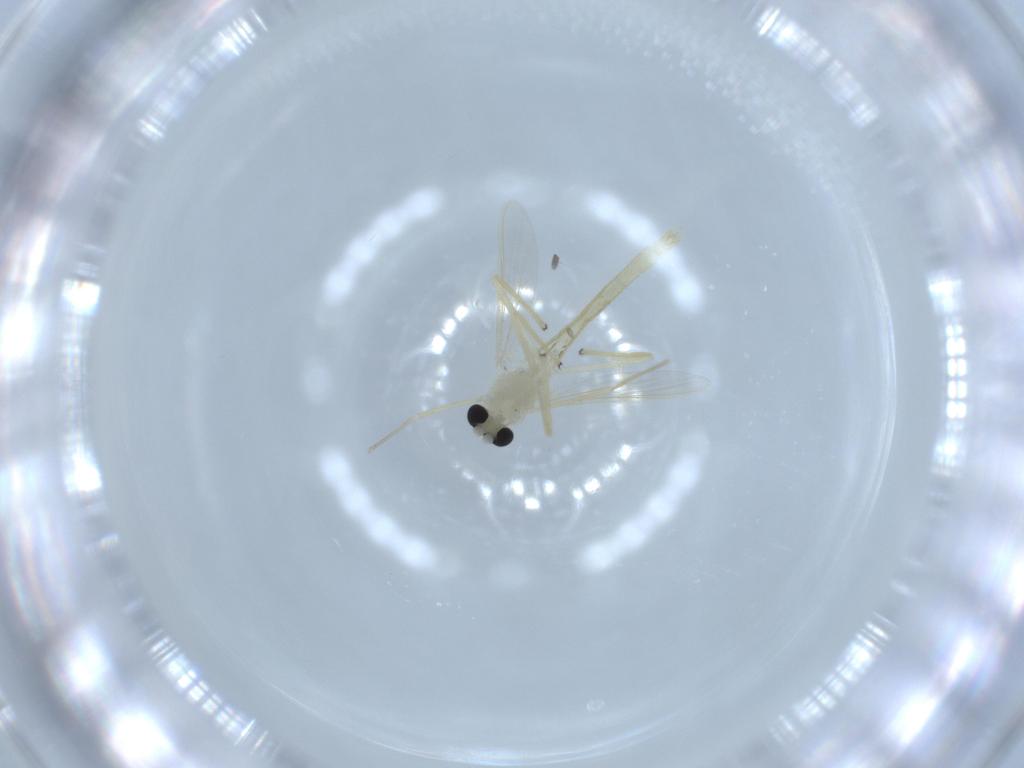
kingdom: Animalia
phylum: Arthropoda
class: Insecta
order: Diptera
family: Chironomidae
